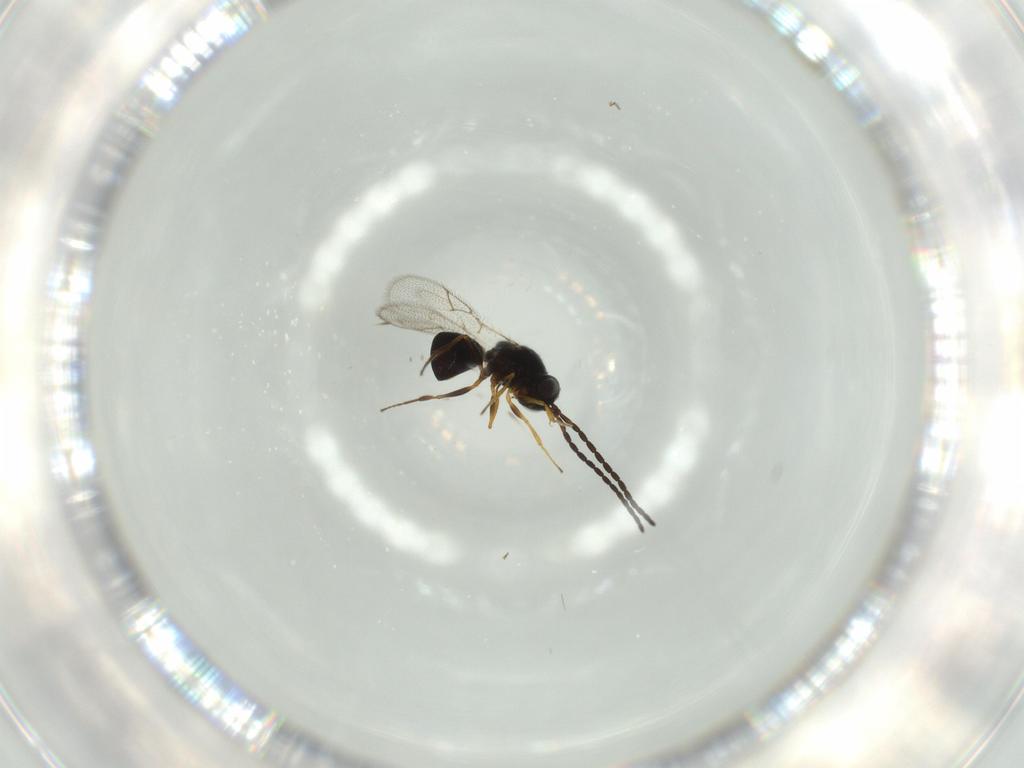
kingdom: Animalia
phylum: Arthropoda
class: Insecta
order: Hymenoptera
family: Figitidae
